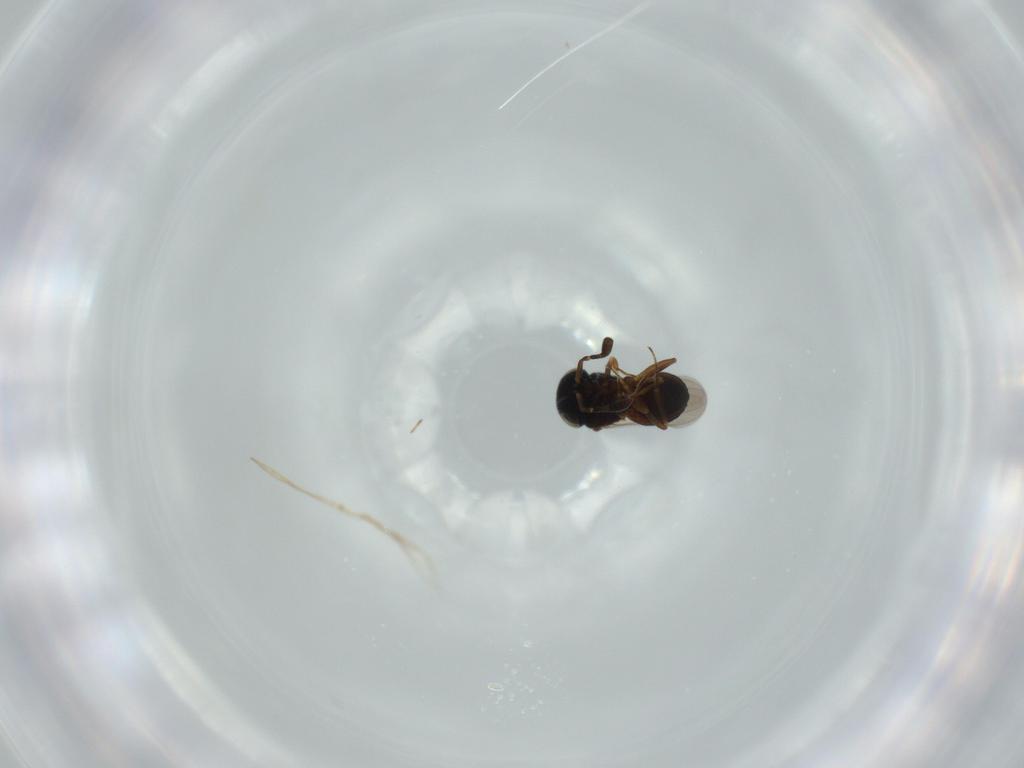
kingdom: Animalia
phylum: Arthropoda
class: Insecta
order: Coleoptera
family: Curculionidae
